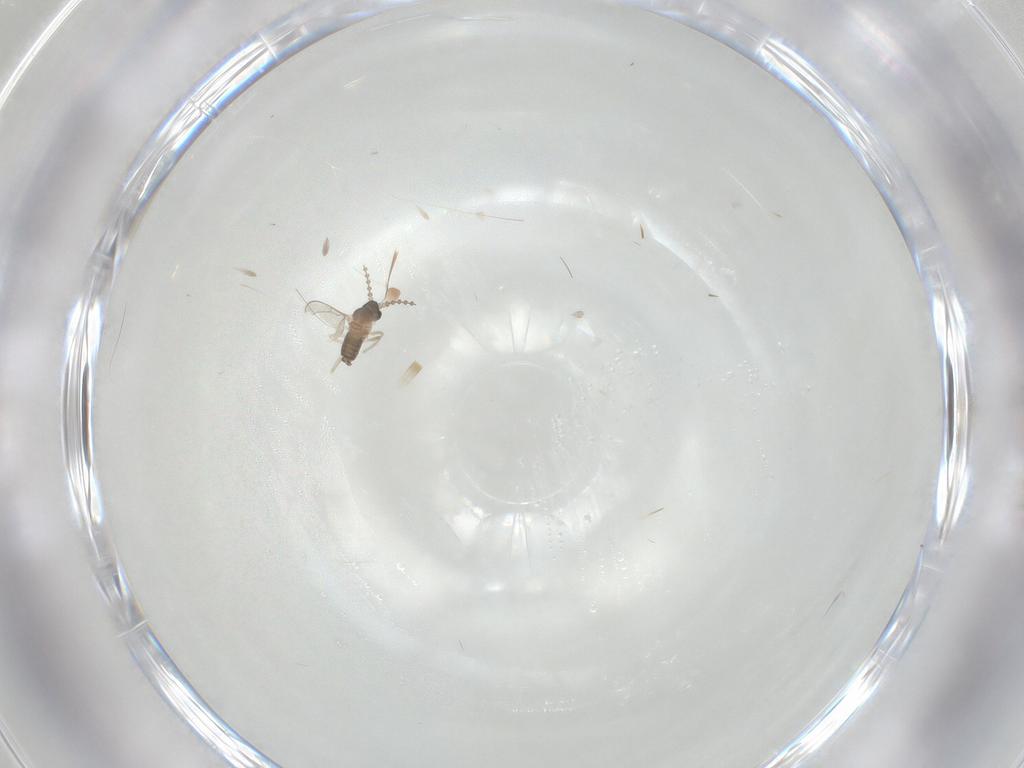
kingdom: Animalia
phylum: Arthropoda
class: Insecta
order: Diptera
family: Cecidomyiidae
